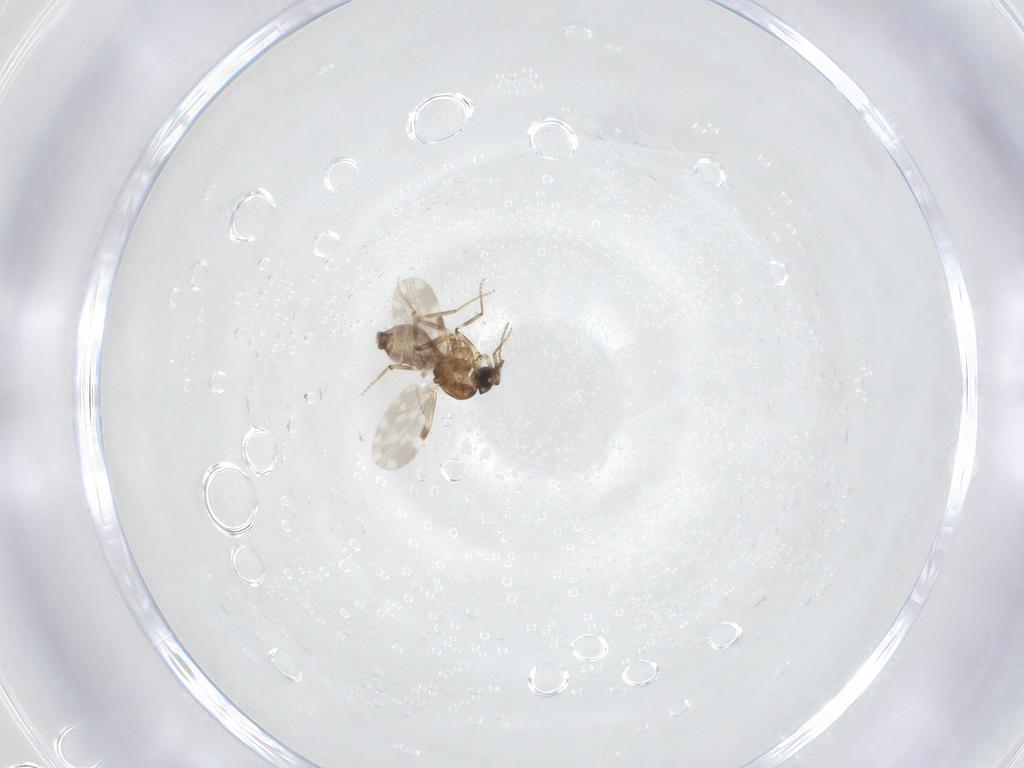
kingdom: Animalia
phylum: Arthropoda
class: Insecta
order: Diptera
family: Ceratopogonidae
